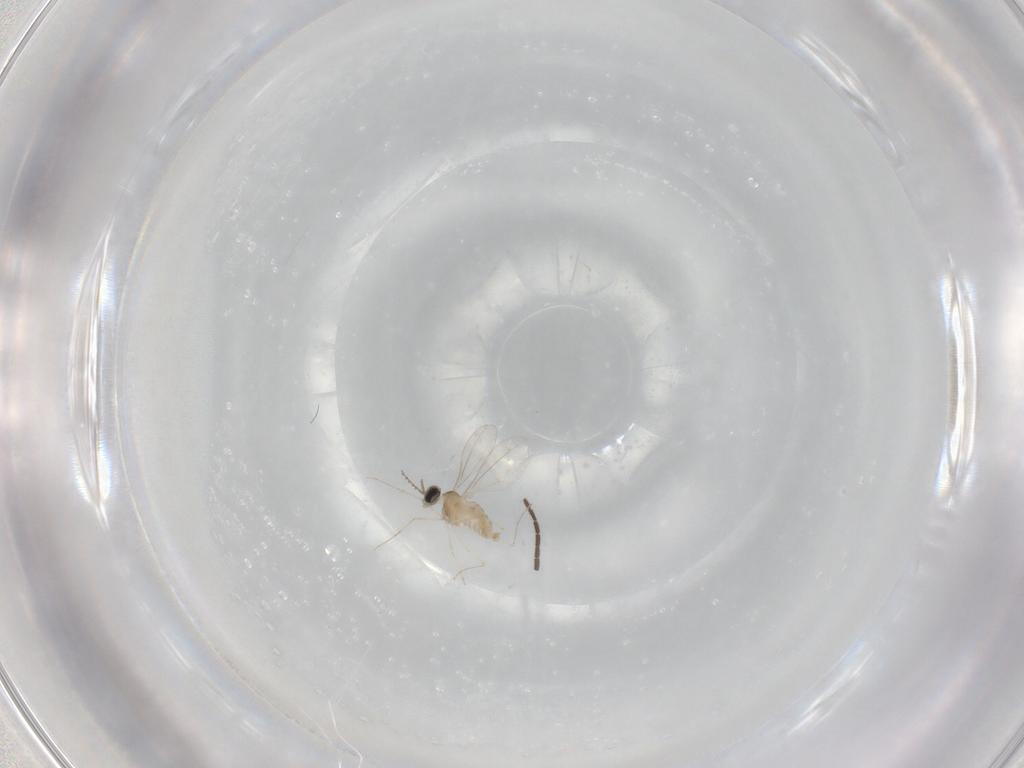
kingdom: Animalia
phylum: Arthropoda
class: Insecta
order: Diptera
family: Cecidomyiidae
